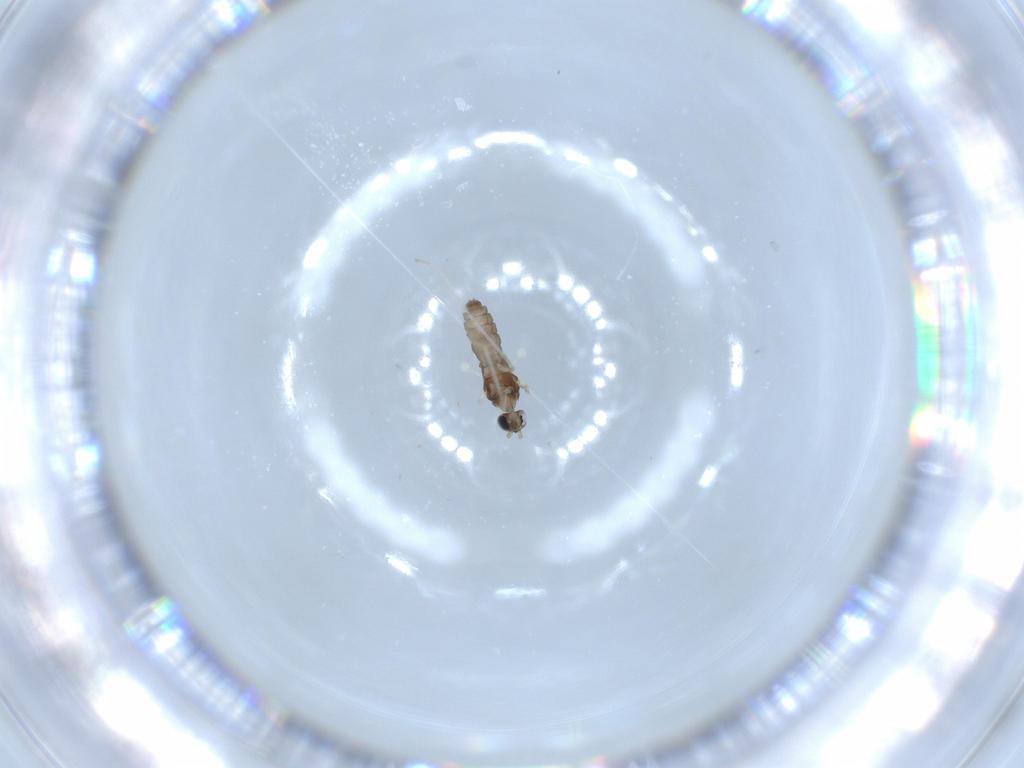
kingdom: Animalia
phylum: Arthropoda
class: Insecta
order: Diptera
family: Cecidomyiidae
